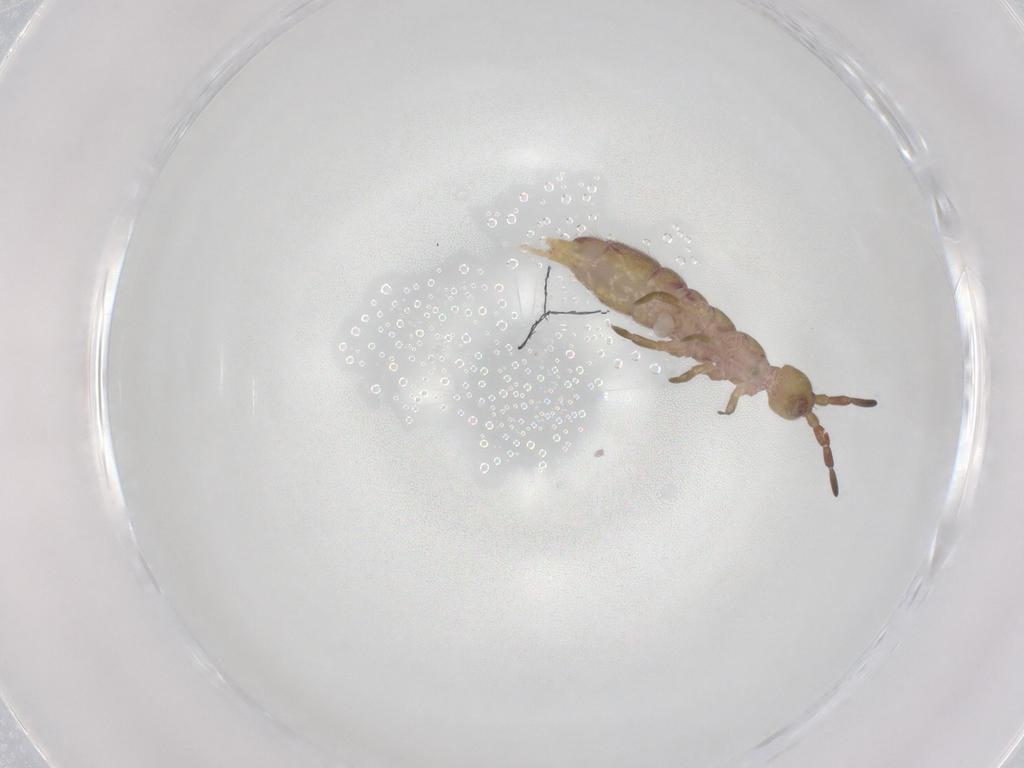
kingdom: Animalia
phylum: Arthropoda
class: Collembola
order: Entomobryomorpha
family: Isotomidae
